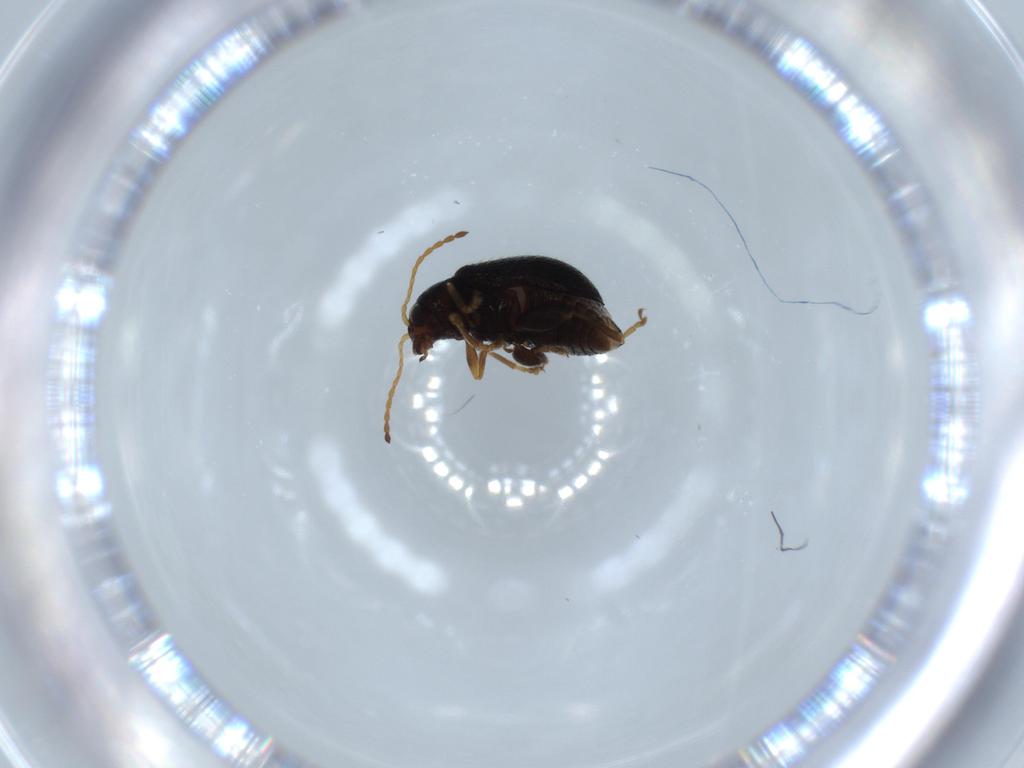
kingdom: Animalia
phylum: Arthropoda
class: Insecta
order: Coleoptera
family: Chrysomelidae
